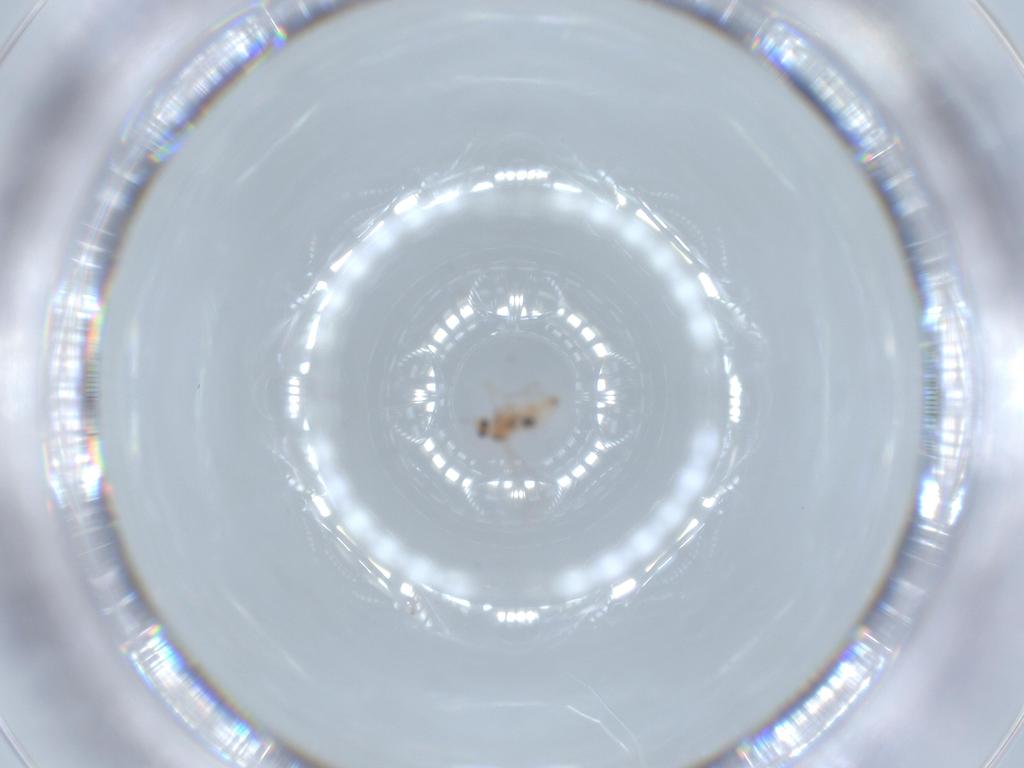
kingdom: Animalia
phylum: Arthropoda
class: Insecta
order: Diptera
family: Cecidomyiidae
